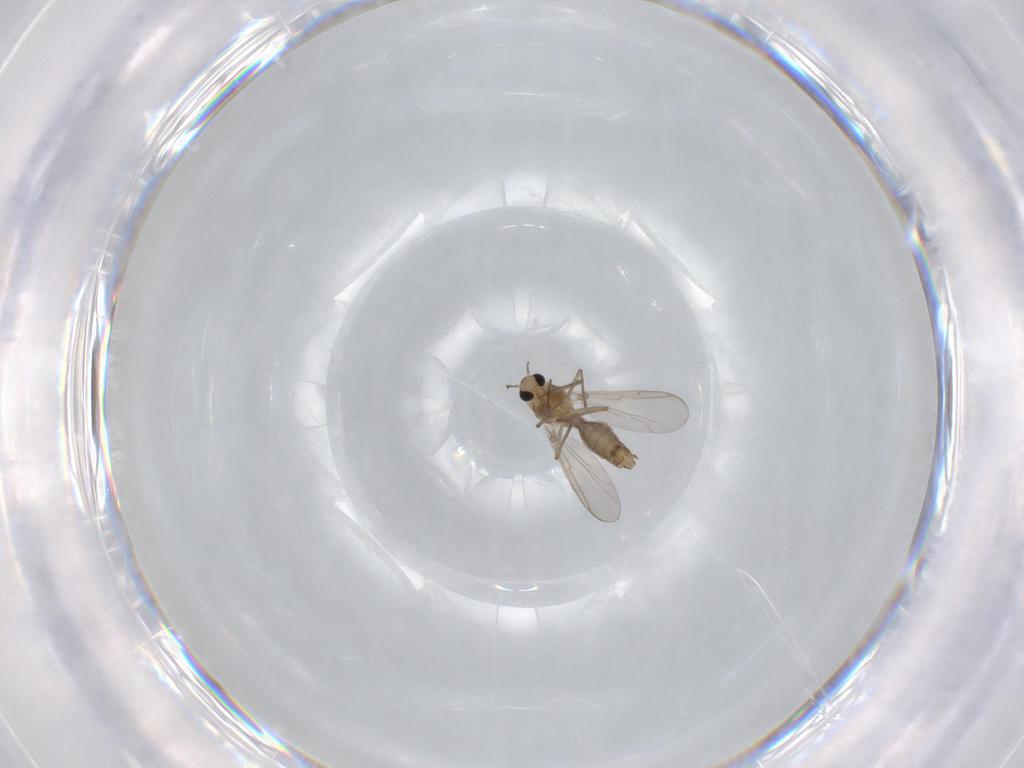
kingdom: Animalia
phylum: Arthropoda
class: Insecta
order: Diptera
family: Chironomidae
